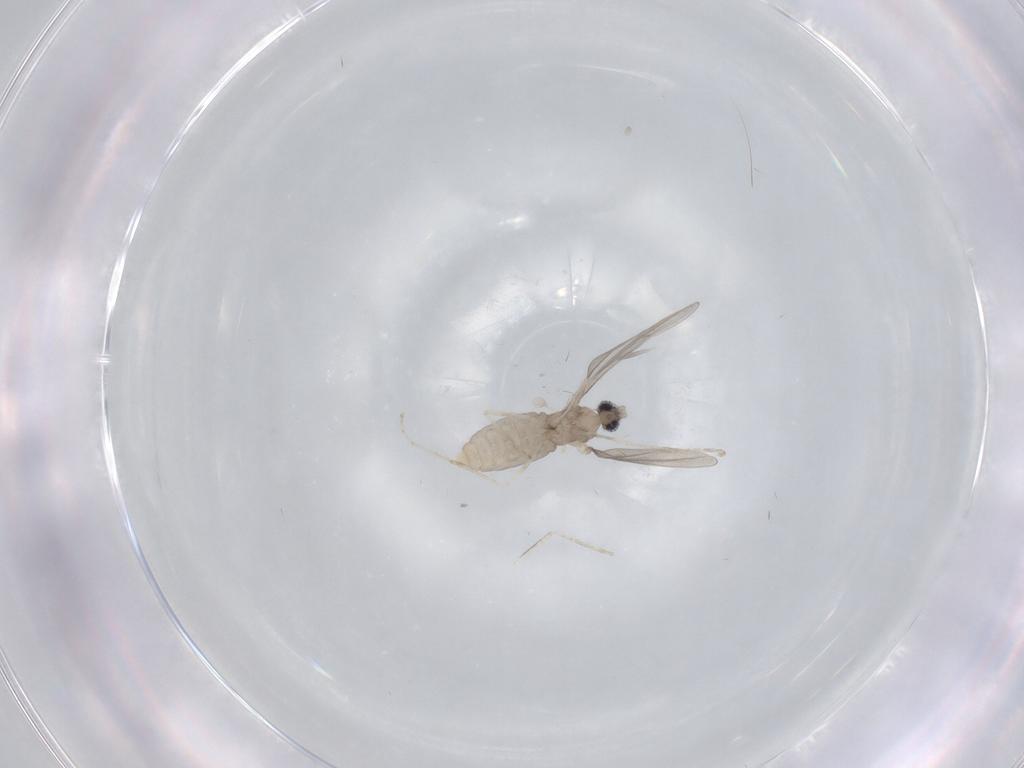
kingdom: Animalia
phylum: Arthropoda
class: Insecta
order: Diptera
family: Cecidomyiidae
